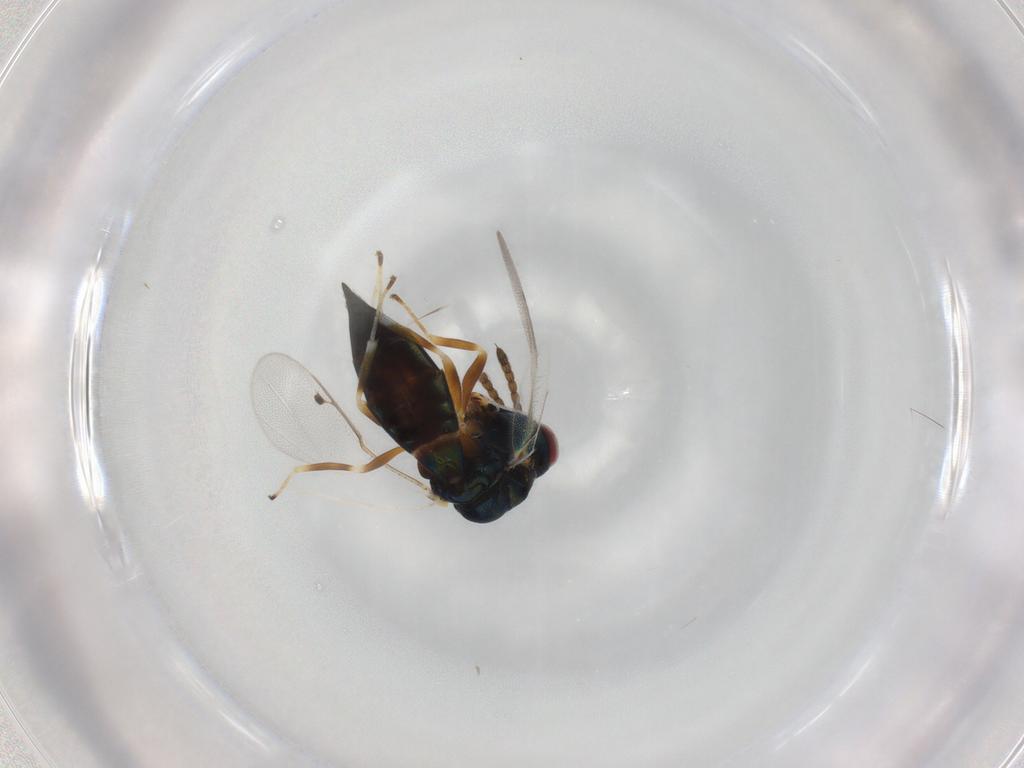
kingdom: Animalia
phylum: Arthropoda
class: Insecta
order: Hymenoptera
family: Pteromalidae
